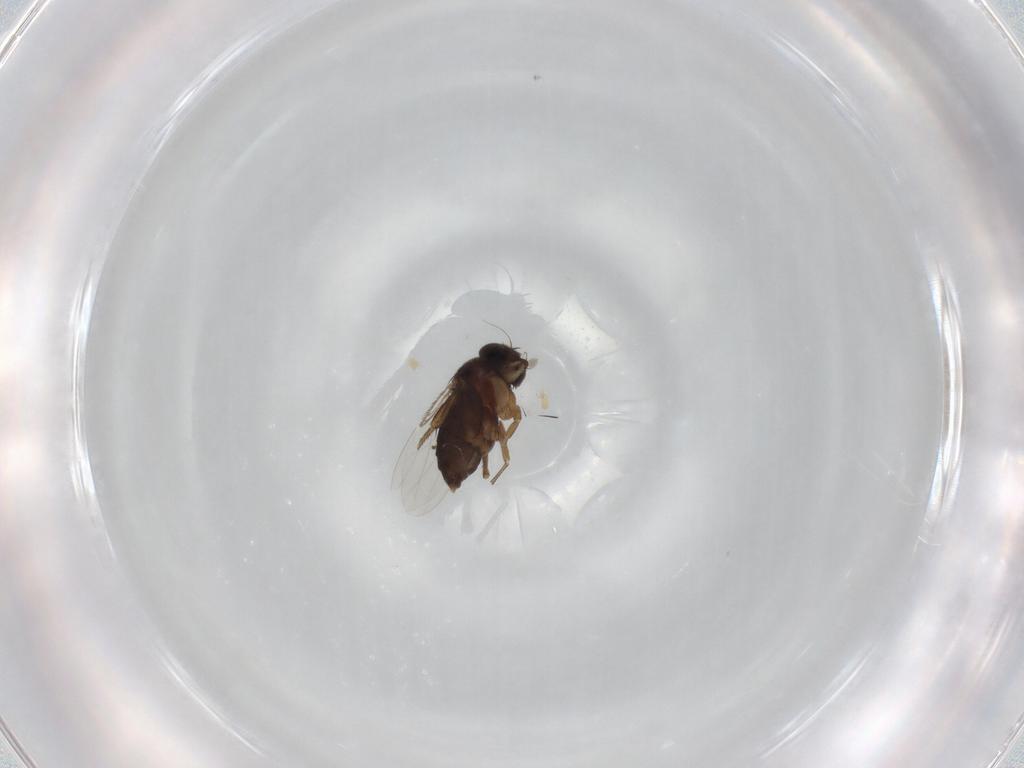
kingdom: Animalia
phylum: Arthropoda
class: Insecta
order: Diptera
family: Phoridae
